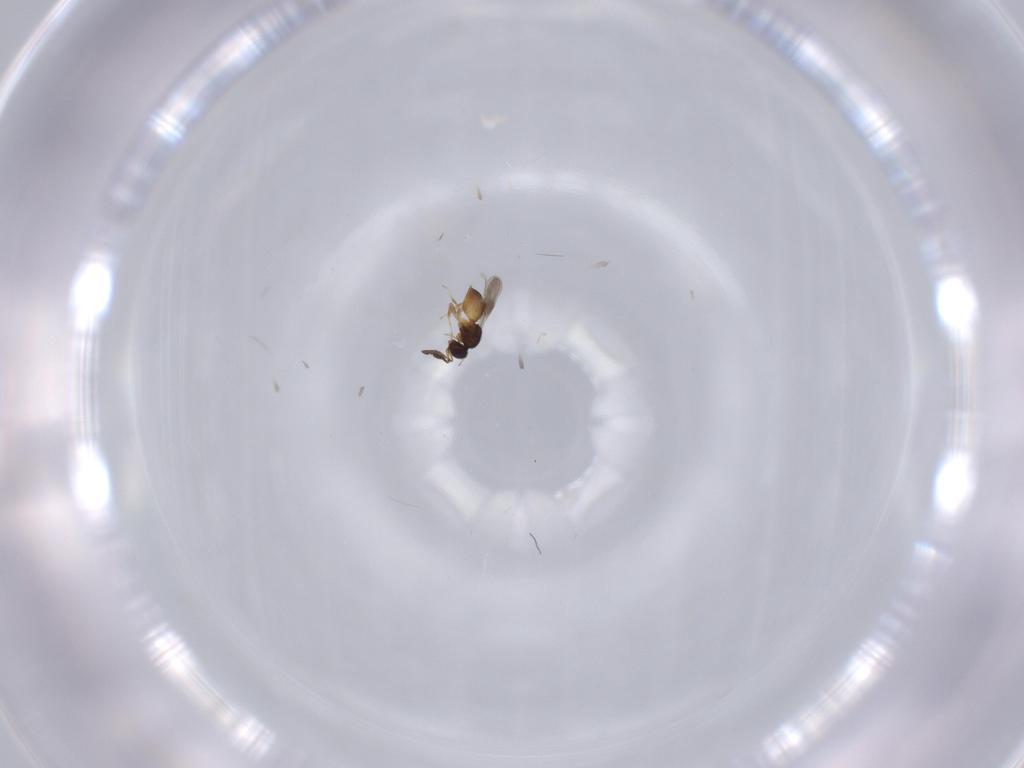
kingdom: Animalia
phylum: Arthropoda
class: Insecta
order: Hymenoptera
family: Ceraphronidae
